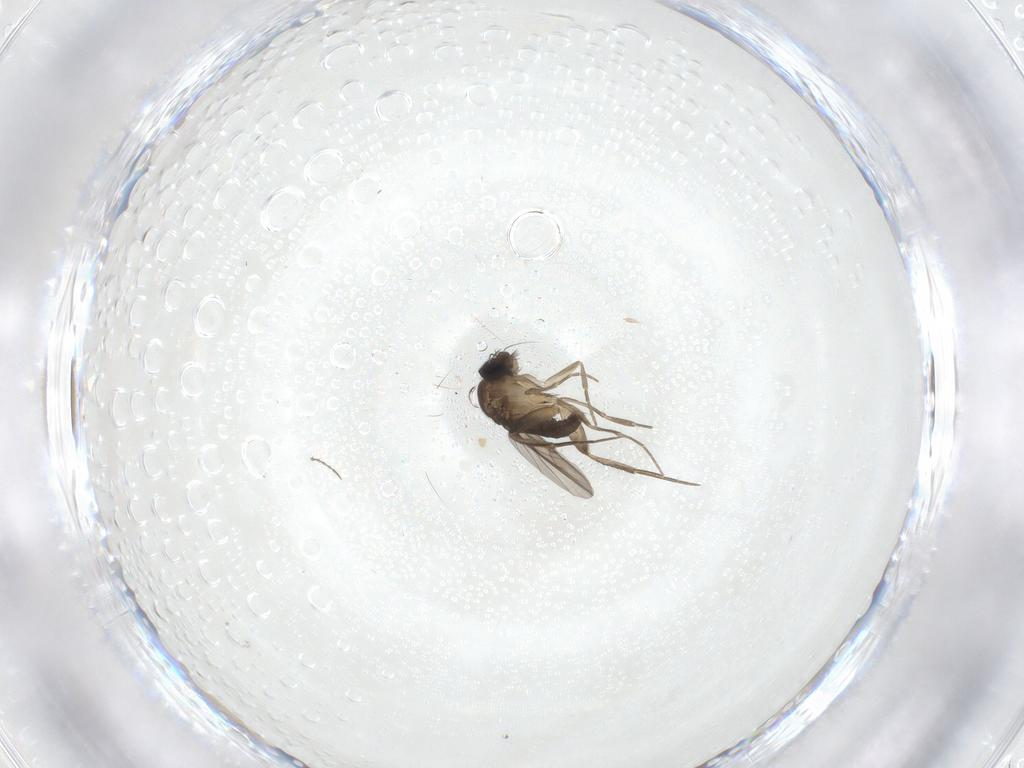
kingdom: Animalia
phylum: Arthropoda
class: Insecta
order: Diptera
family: Phoridae
